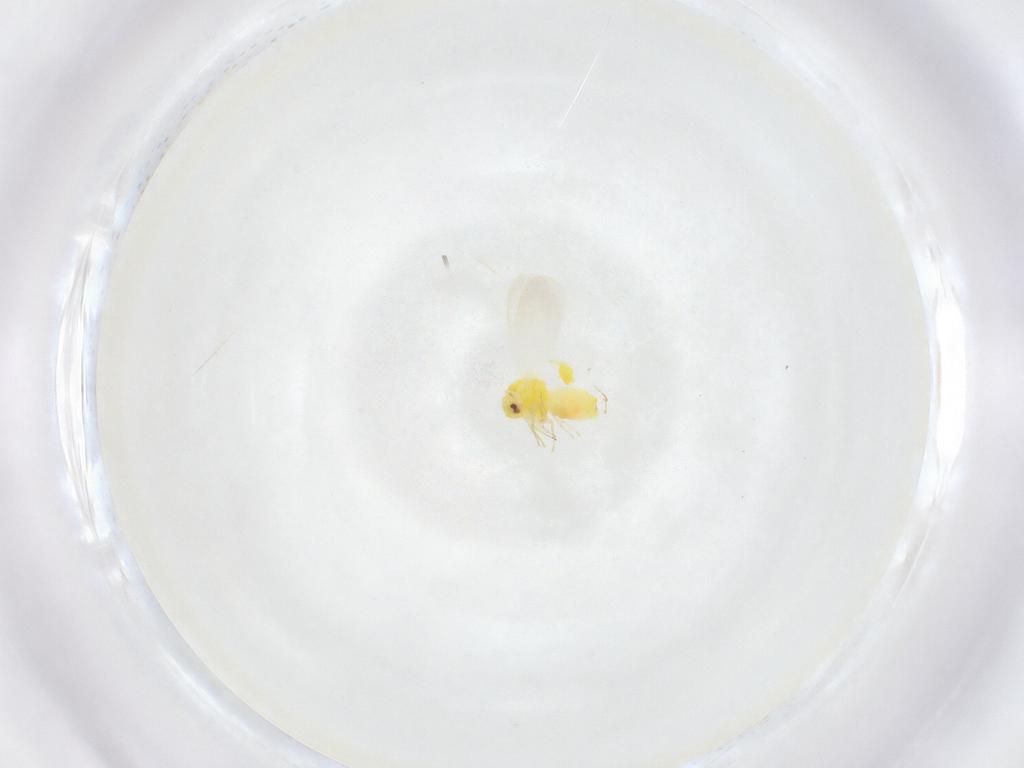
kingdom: Animalia
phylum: Arthropoda
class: Insecta
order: Hemiptera
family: Aleyrodidae
